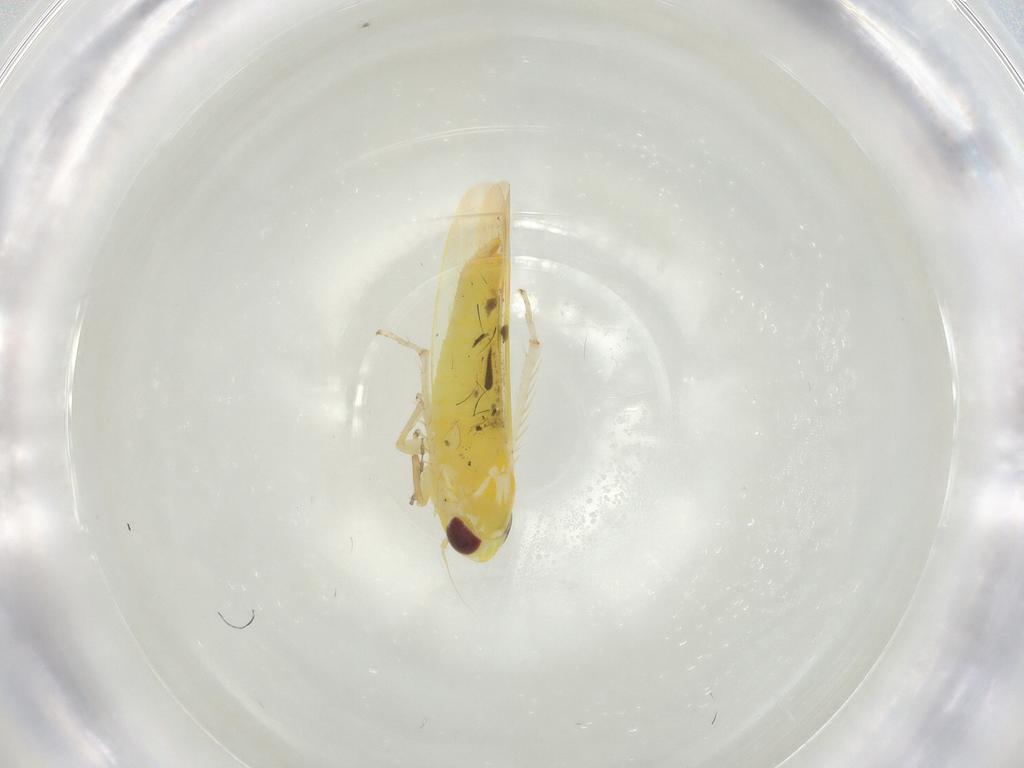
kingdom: Animalia
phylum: Arthropoda
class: Insecta
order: Hemiptera
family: Cicadellidae
